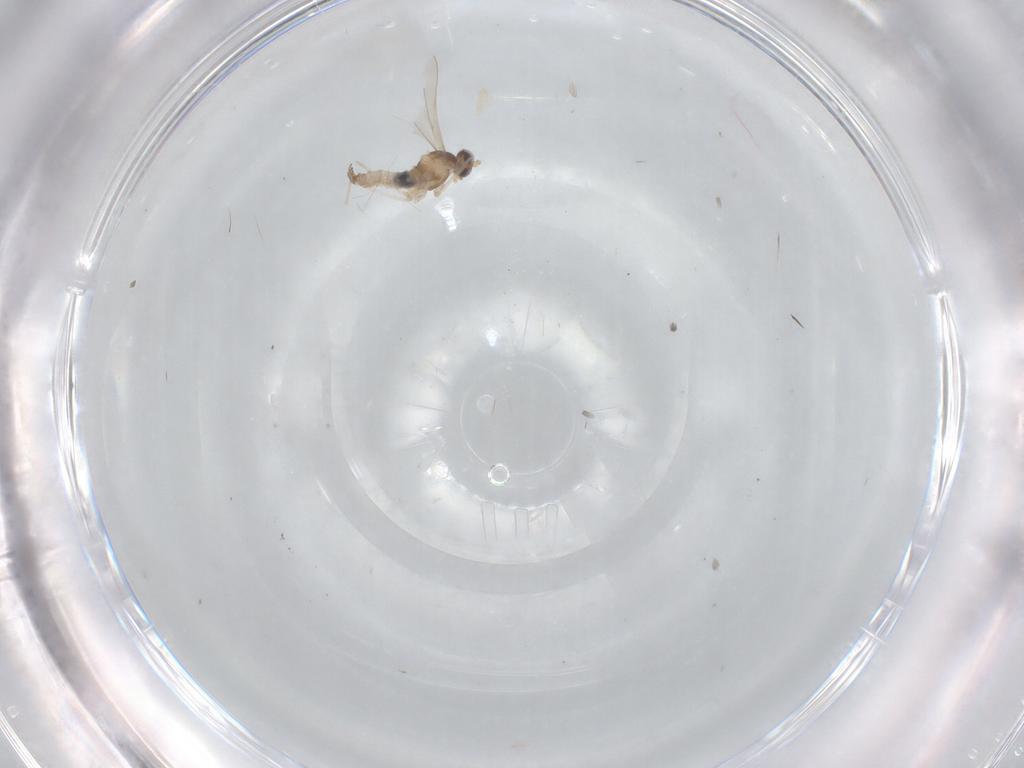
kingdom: Animalia
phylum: Arthropoda
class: Insecta
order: Diptera
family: Cecidomyiidae
